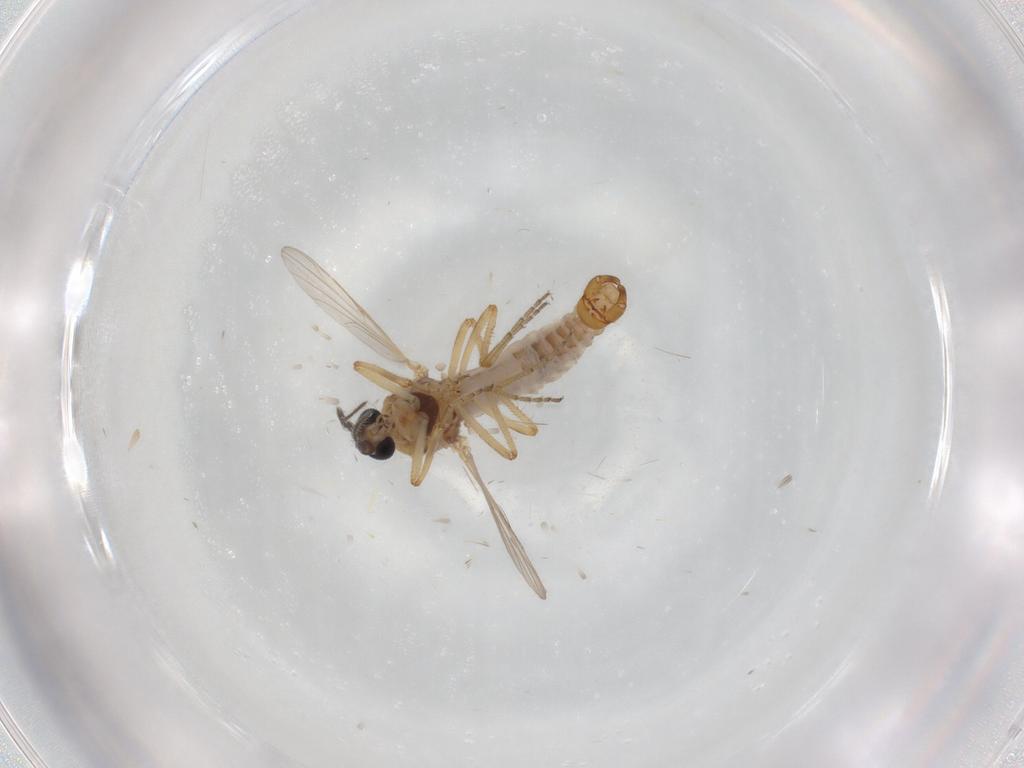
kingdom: Animalia
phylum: Arthropoda
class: Insecta
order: Diptera
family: Ceratopogonidae
